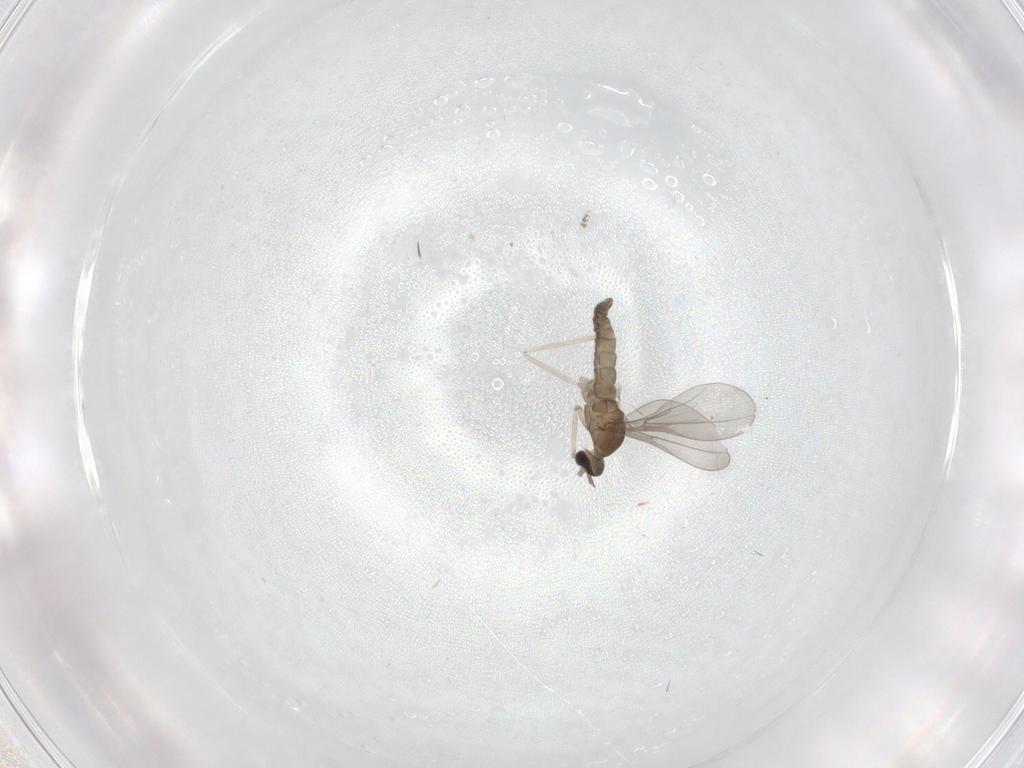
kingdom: Animalia
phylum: Arthropoda
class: Insecta
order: Diptera
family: Cecidomyiidae
